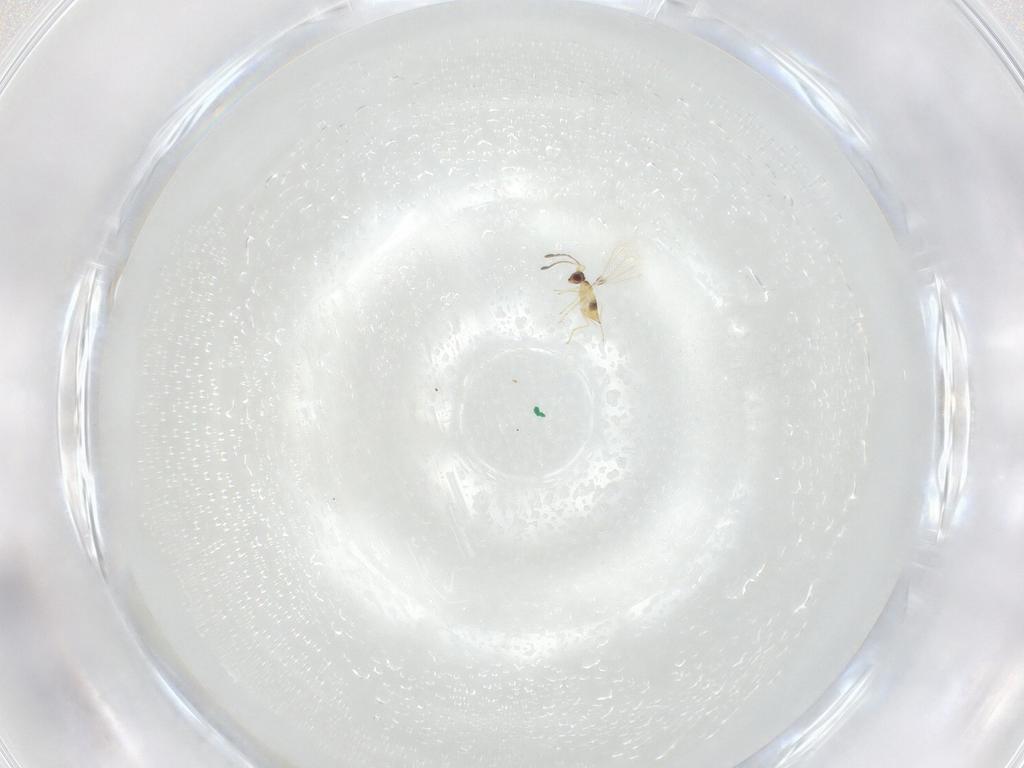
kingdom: Animalia
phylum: Arthropoda
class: Insecta
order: Hymenoptera
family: Mymaridae
